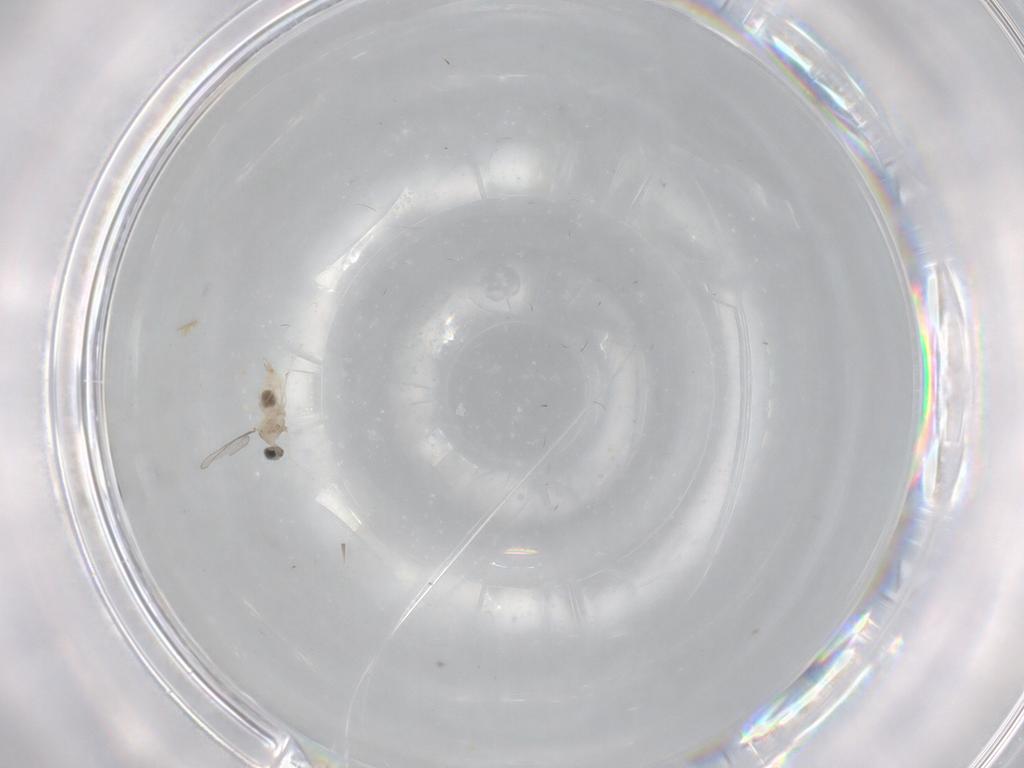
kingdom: Animalia
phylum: Arthropoda
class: Insecta
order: Diptera
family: Cecidomyiidae
